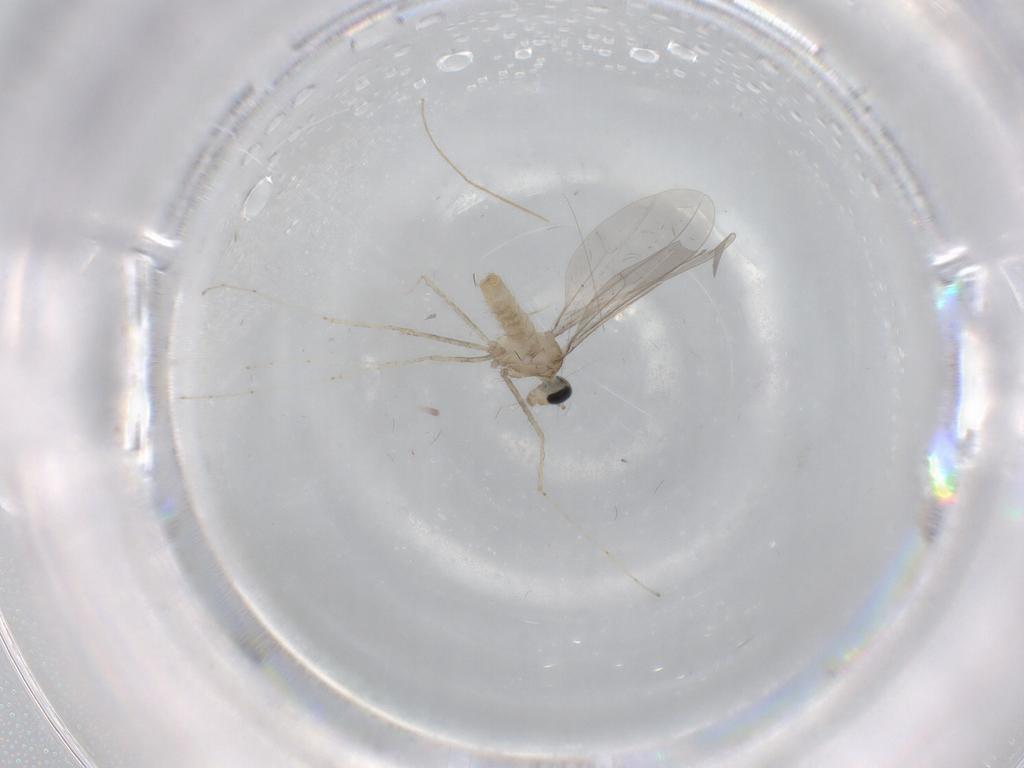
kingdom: Animalia
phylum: Arthropoda
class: Insecta
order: Diptera
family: Cecidomyiidae
